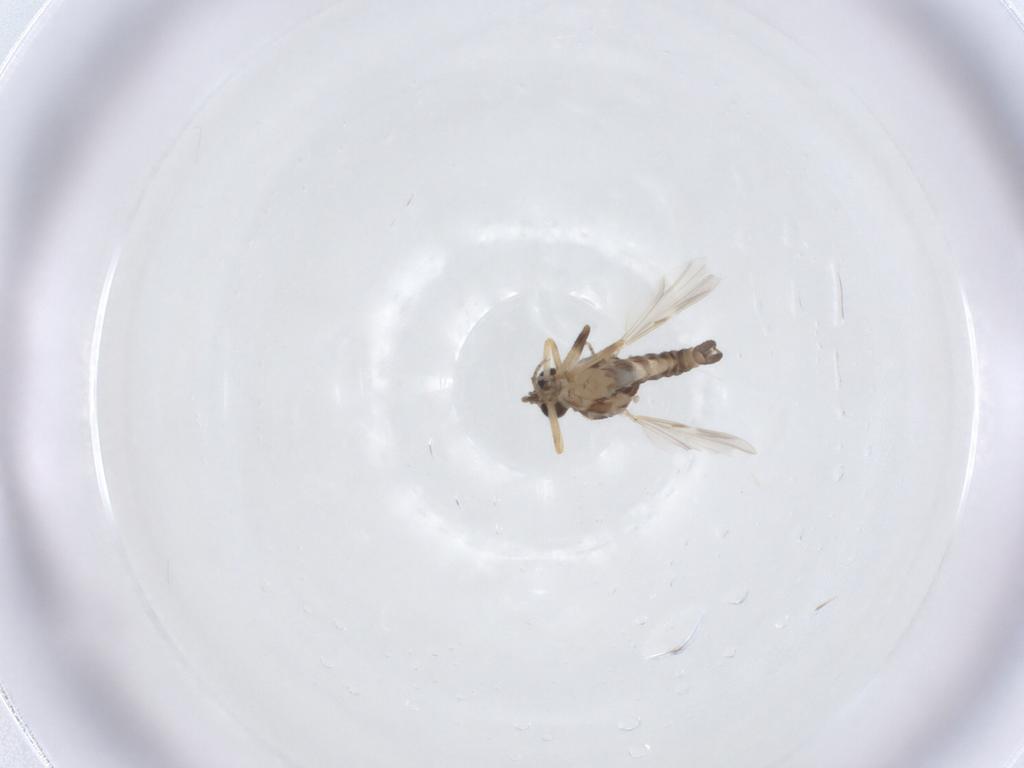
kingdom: Animalia
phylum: Arthropoda
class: Insecta
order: Diptera
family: Ceratopogonidae
